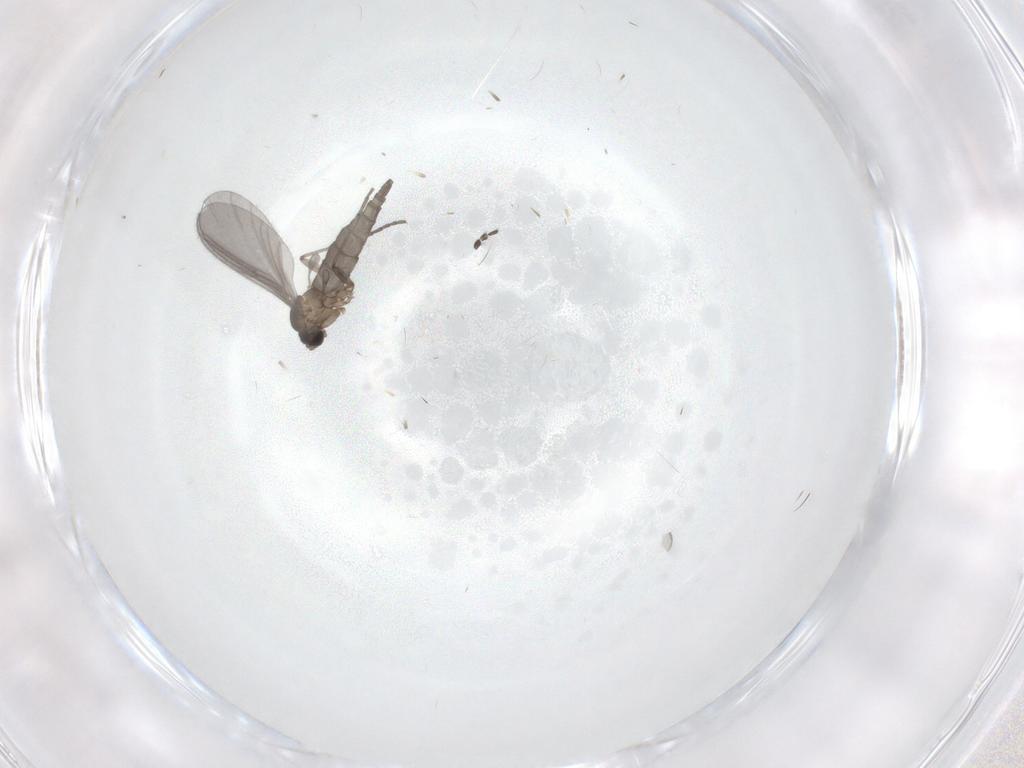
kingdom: Animalia
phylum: Arthropoda
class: Insecta
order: Diptera
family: Sciaridae
